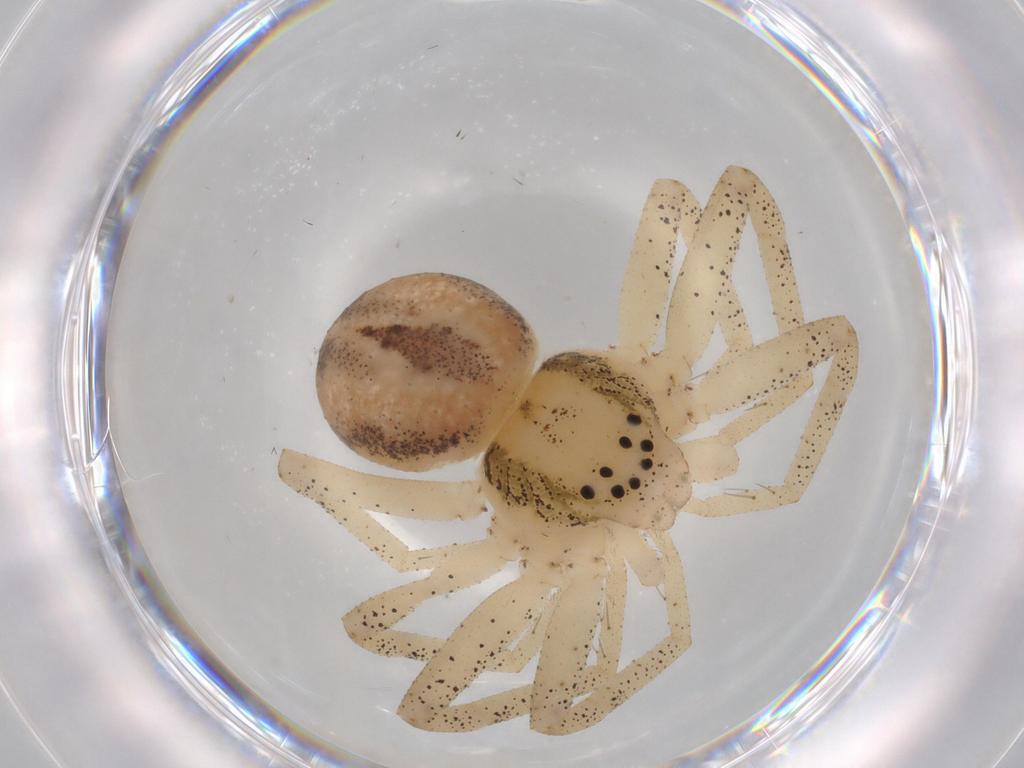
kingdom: Animalia
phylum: Arthropoda
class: Arachnida
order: Araneae
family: Philodromidae
